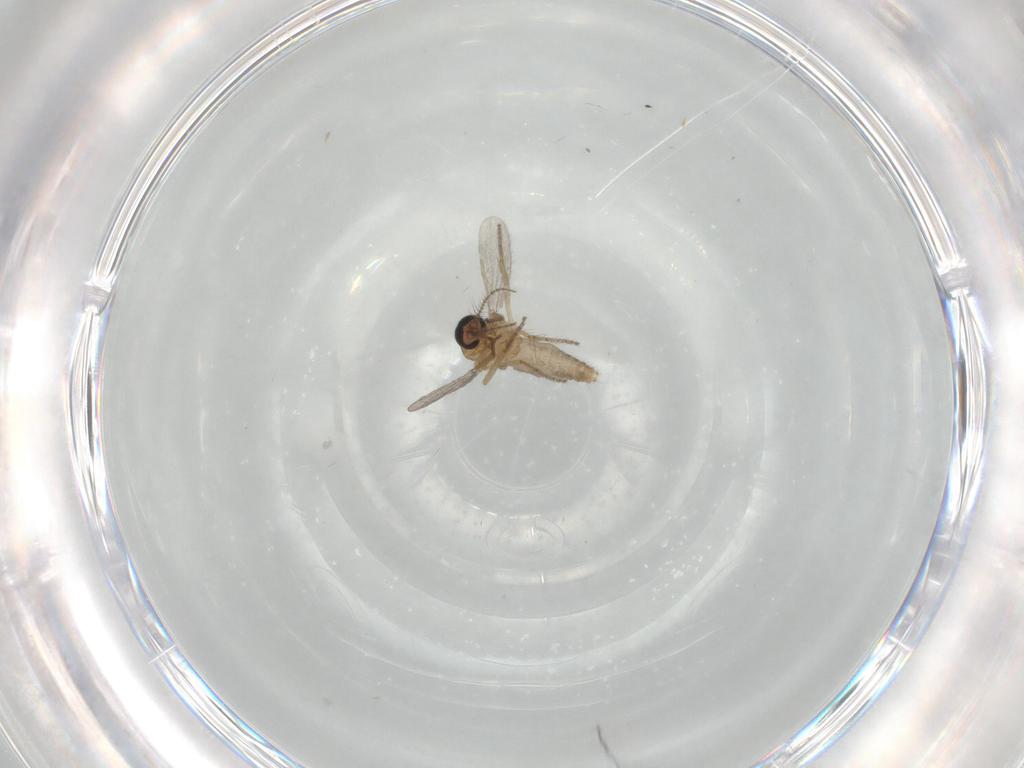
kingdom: Animalia
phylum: Arthropoda
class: Insecta
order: Diptera
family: Ceratopogonidae
